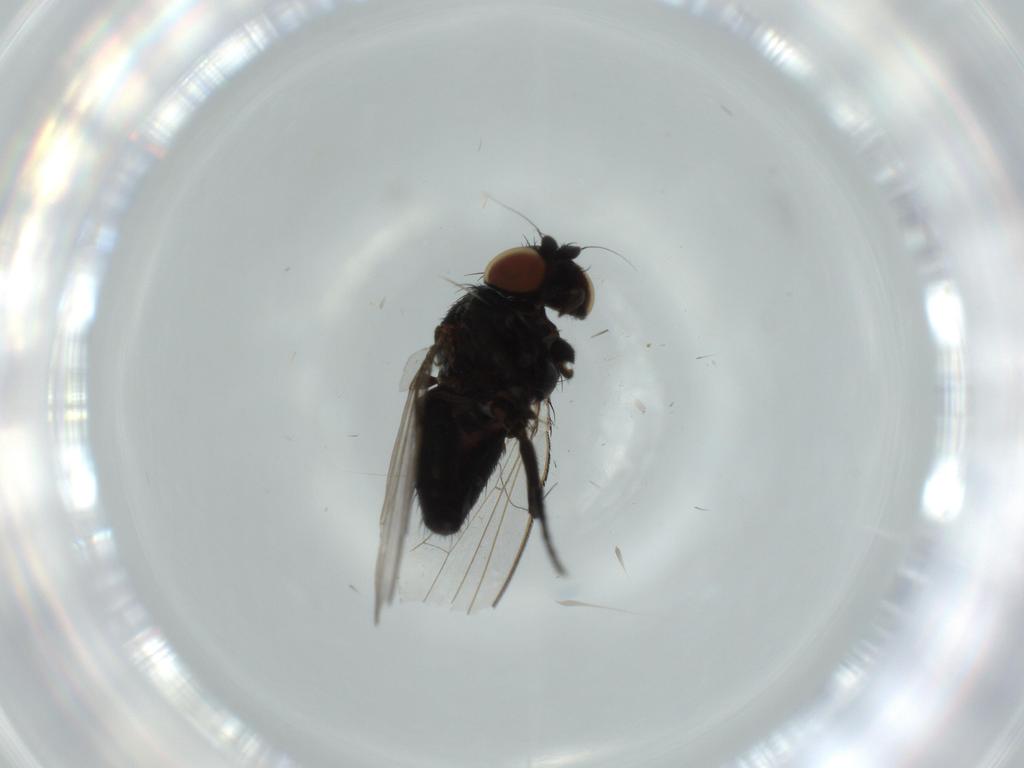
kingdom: Animalia
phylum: Arthropoda
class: Insecta
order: Diptera
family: Milichiidae
